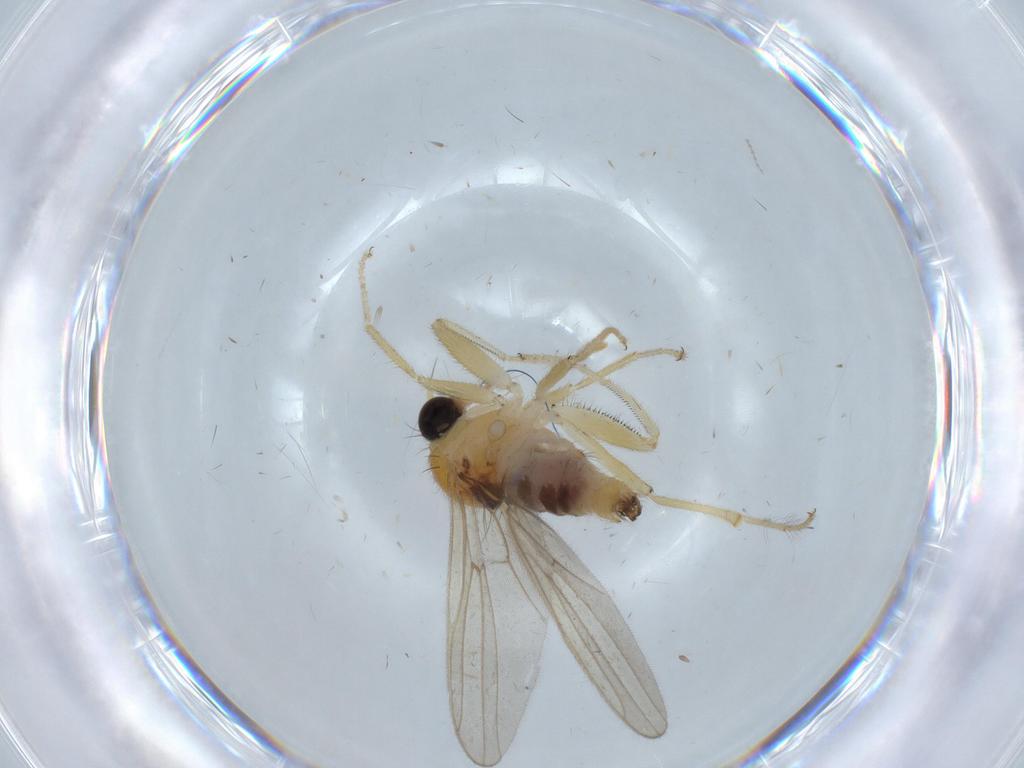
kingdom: Animalia
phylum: Arthropoda
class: Insecta
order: Diptera
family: Hybotidae
